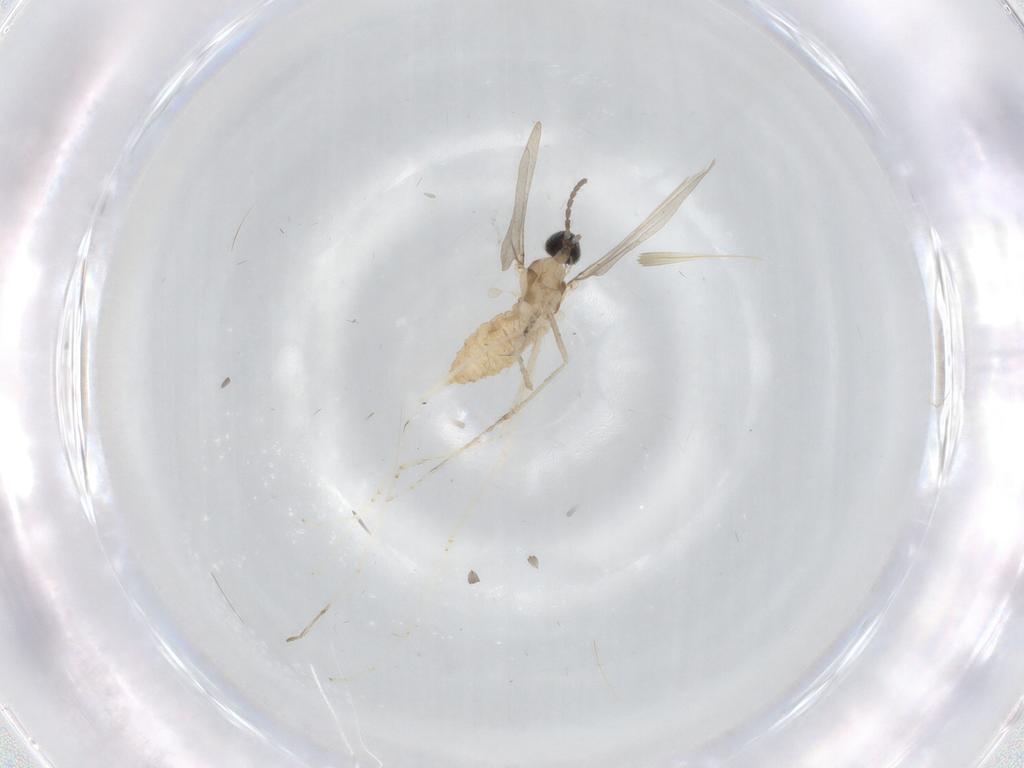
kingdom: Animalia
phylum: Arthropoda
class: Insecta
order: Diptera
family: Cecidomyiidae
